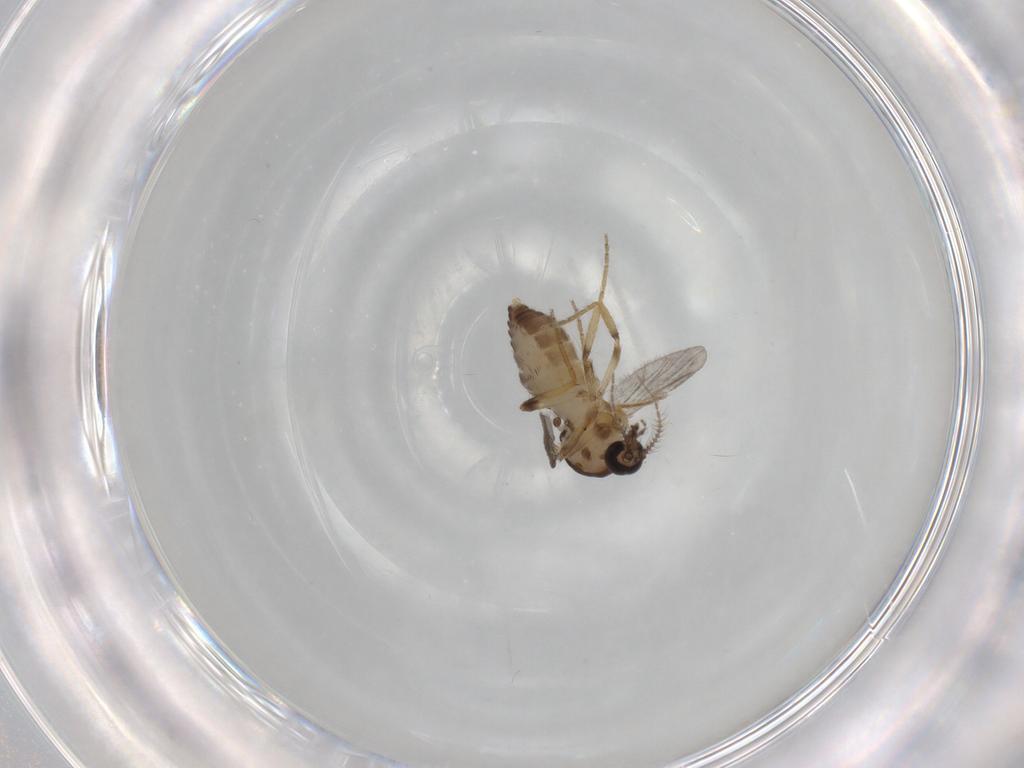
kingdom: Animalia
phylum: Arthropoda
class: Insecta
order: Diptera
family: Ceratopogonidae
